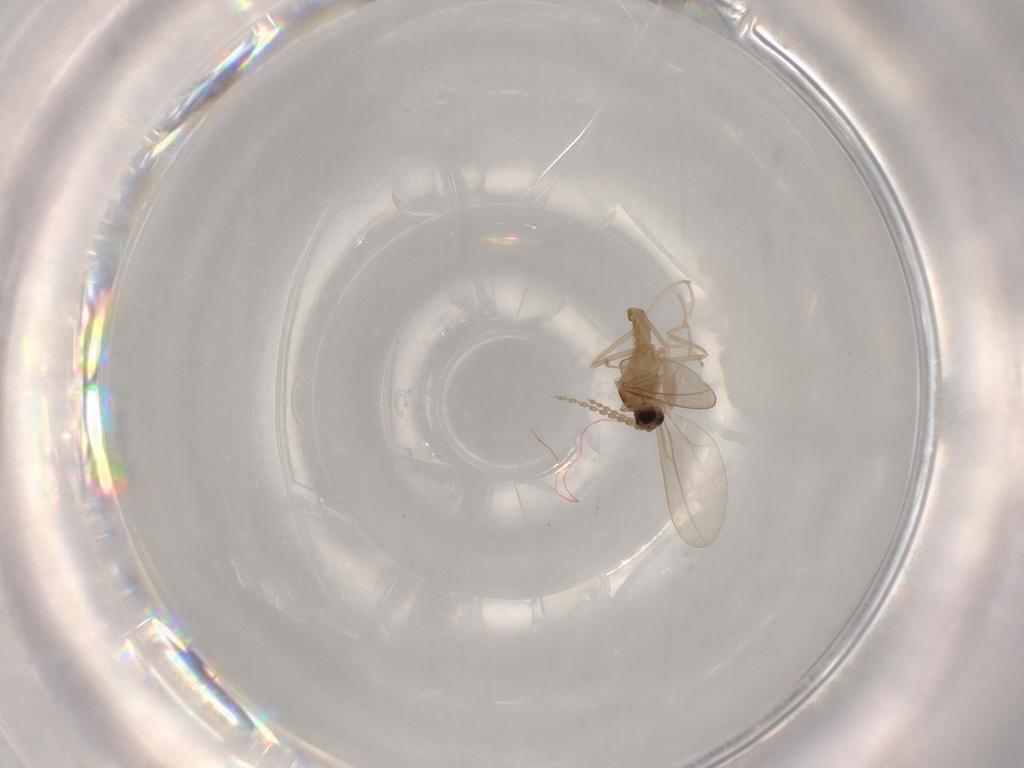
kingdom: Animalia
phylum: Arthropoda
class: Insecta
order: Diptera
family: Cecidomyiidae
